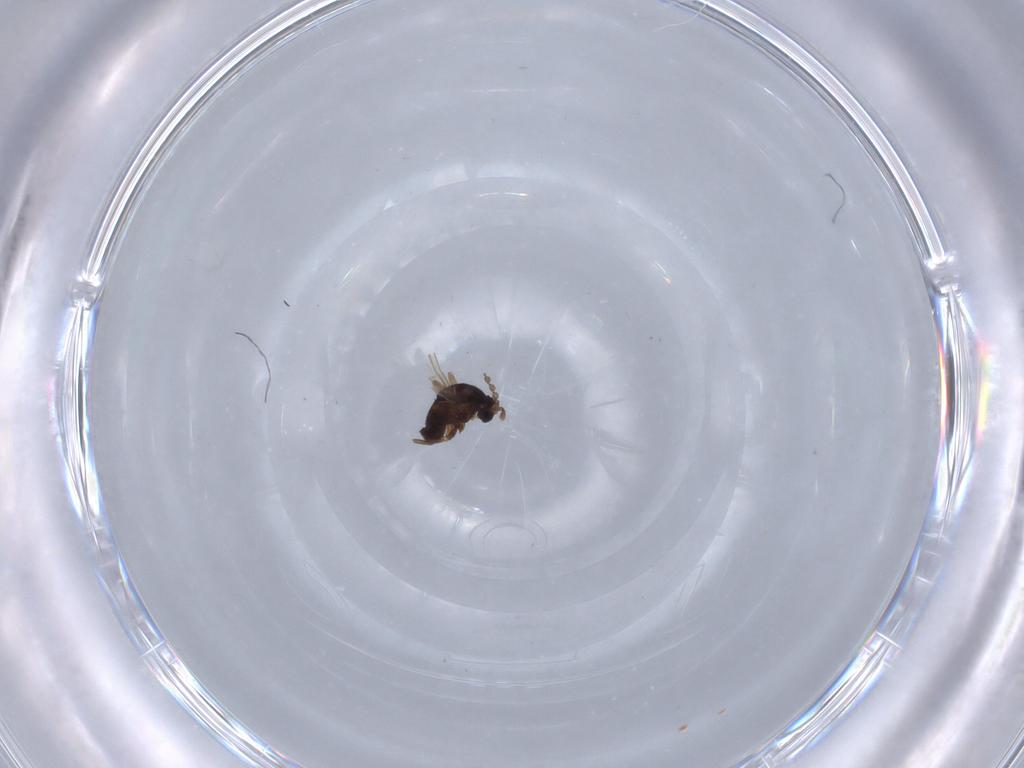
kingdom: Animalia
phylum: Arthropoda
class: Insecta
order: Diptera
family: Cecidomyiidae
